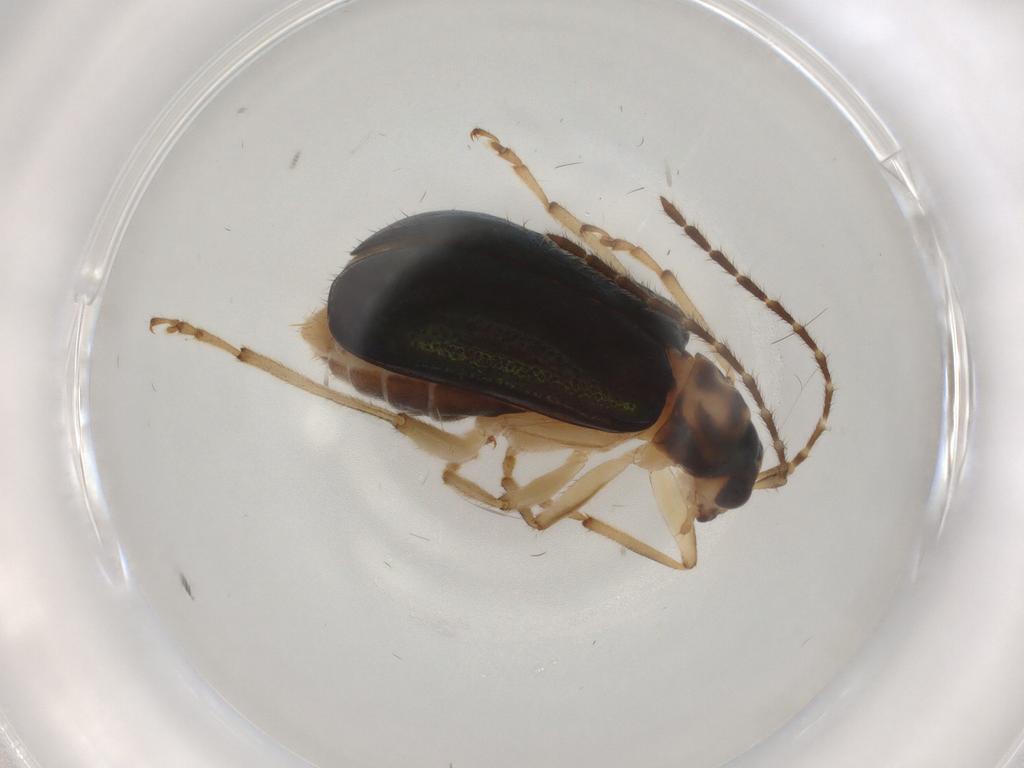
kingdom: Animalia
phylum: Arthropoda
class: Insecta
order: Coleoptera
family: Chrysomelidae
